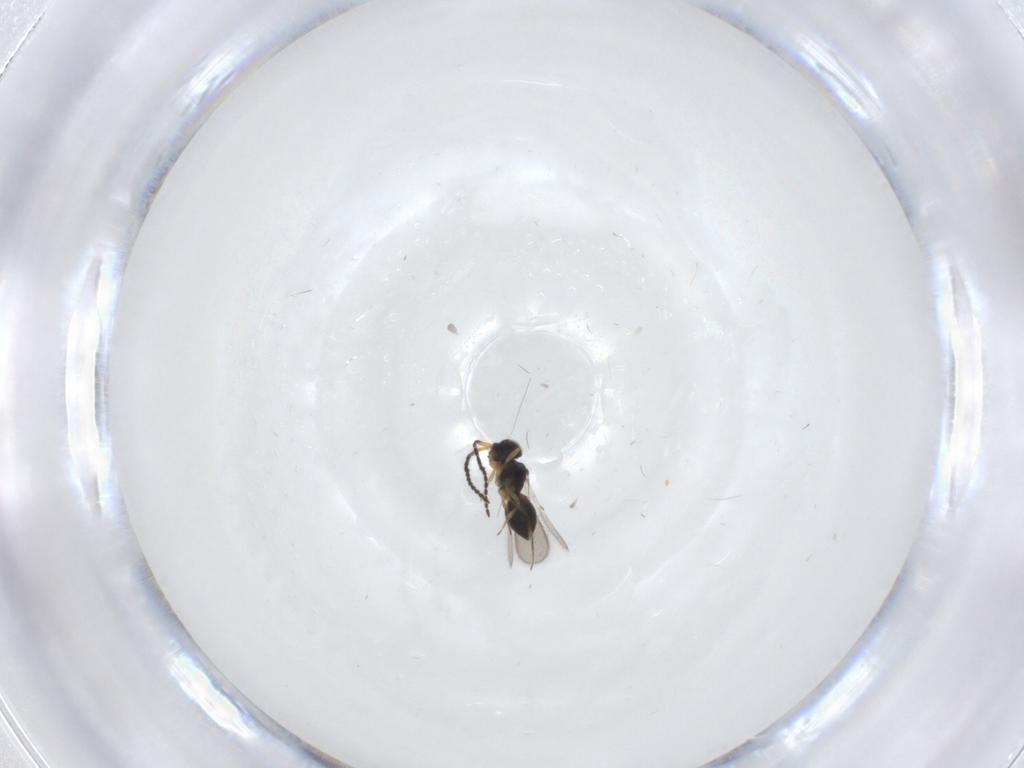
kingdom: Animalia
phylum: Arthropoda
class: Insecta
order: Hymenoptera
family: Scelionidae
